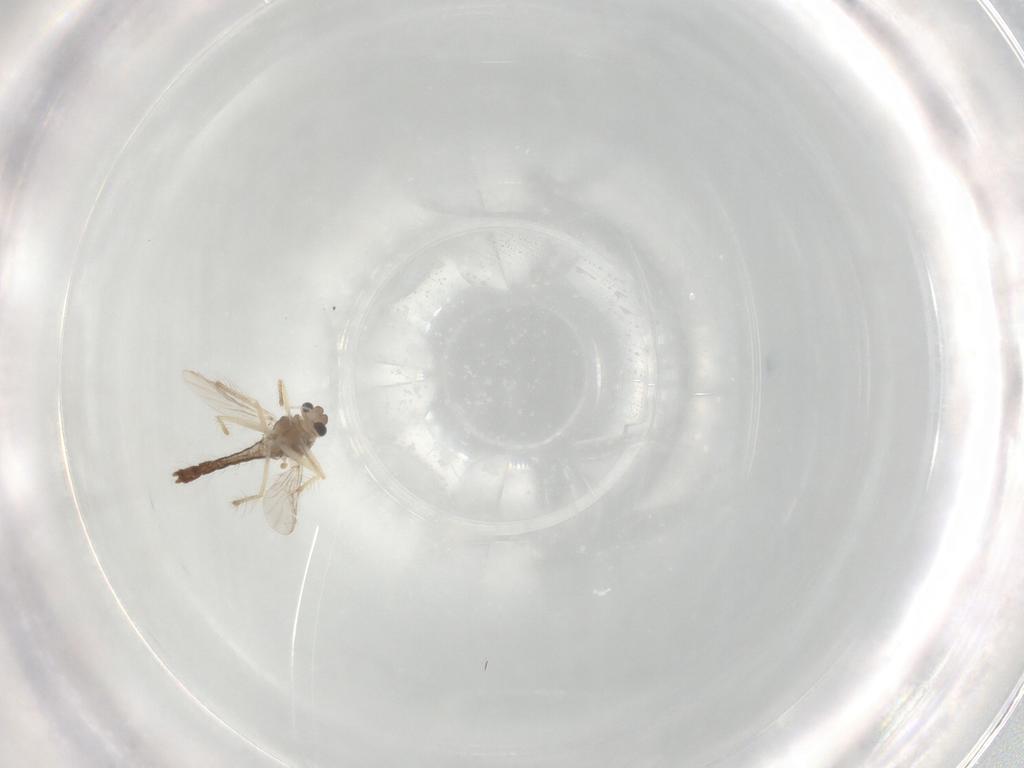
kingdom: Animalia
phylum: Arthropoda
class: Insecta
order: Diptera
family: Chironomidae
